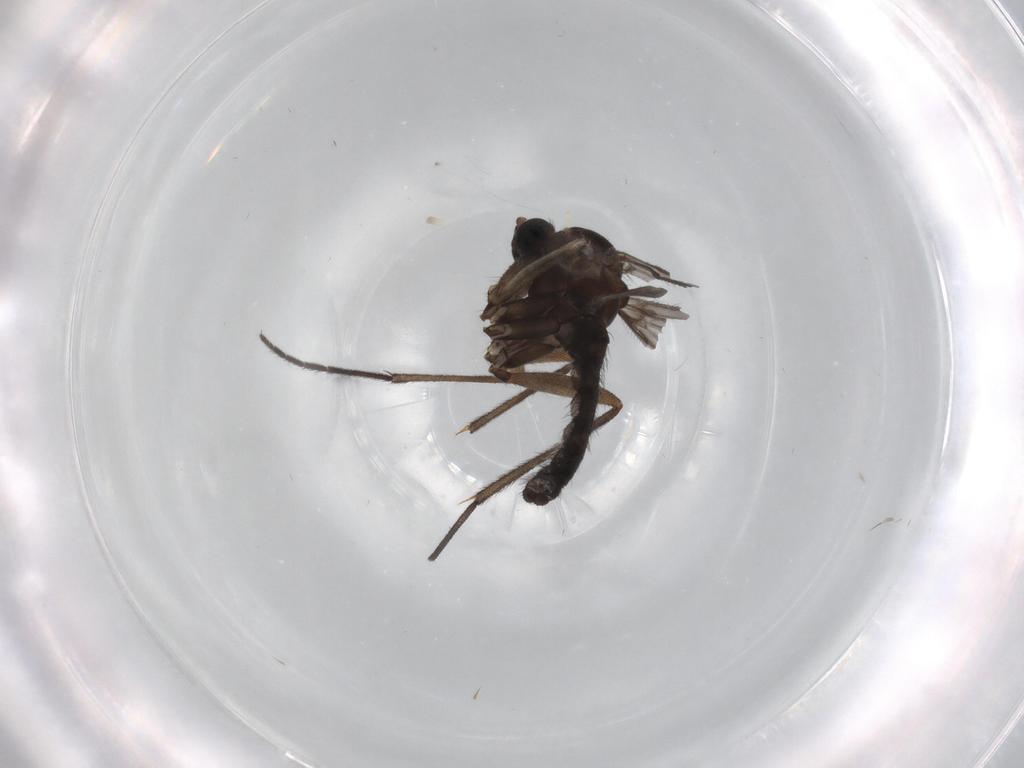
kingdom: Animalia
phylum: Arthropoda
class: Insecta
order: Diptera
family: Sciaridae
